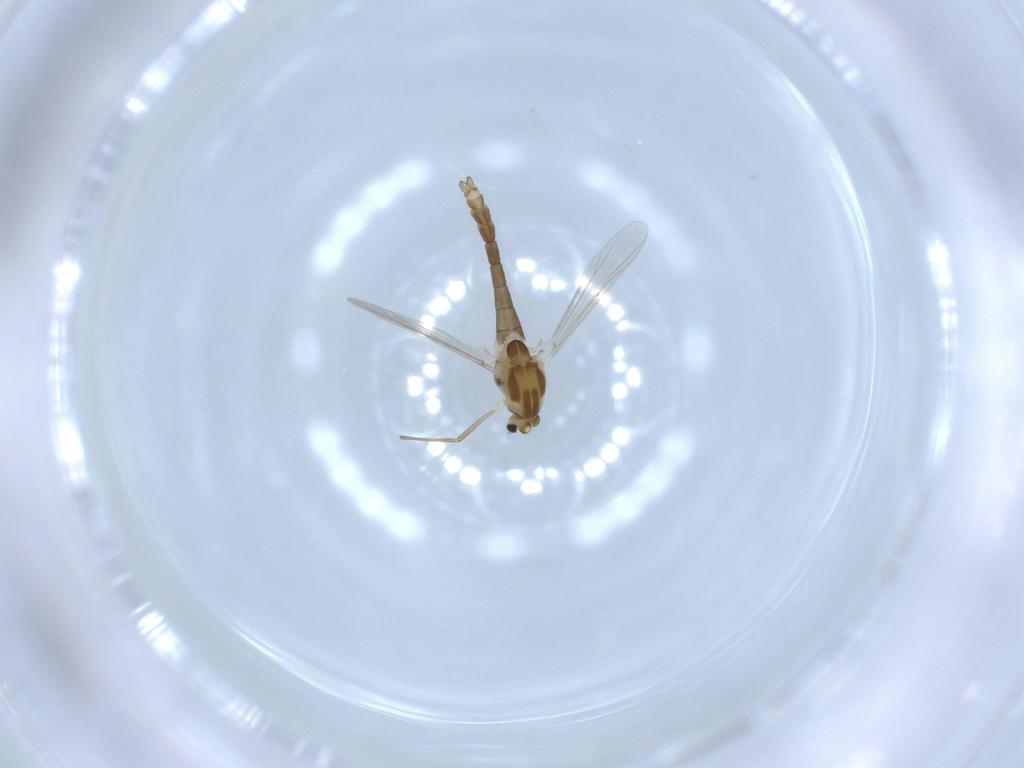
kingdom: Animalia
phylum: Arthropoda
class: Insecta
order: Diptera
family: Chironomidae
